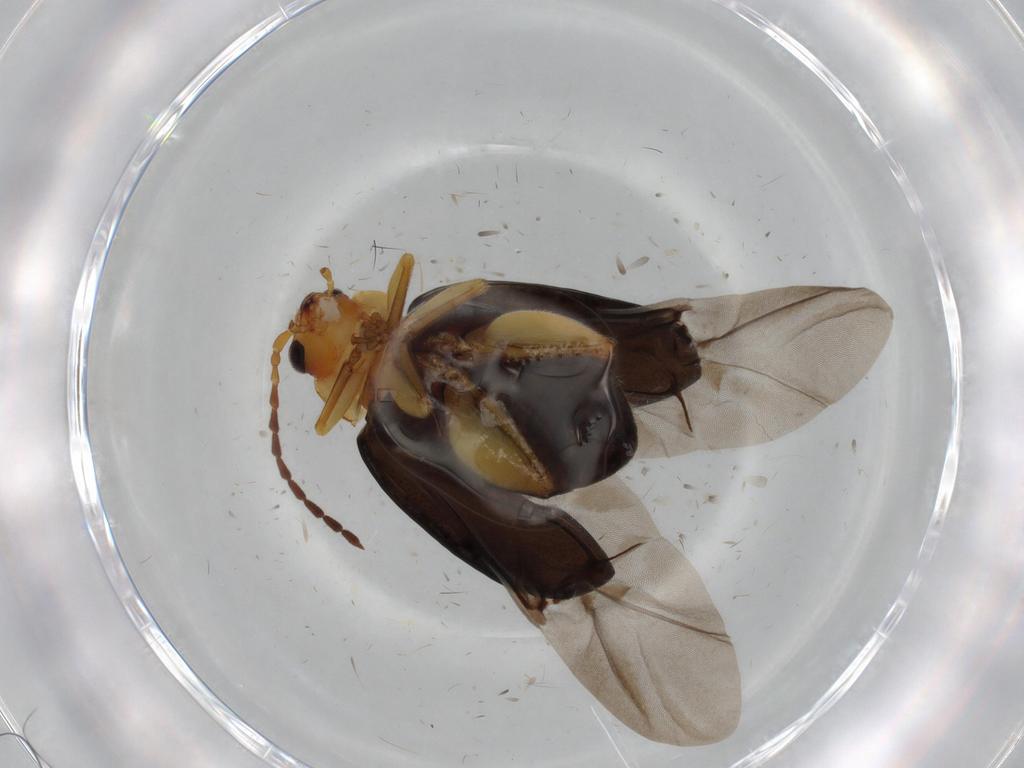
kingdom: Animalia
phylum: Arthropoda
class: Insecta
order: Coleoptera
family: Chrysomelidae
